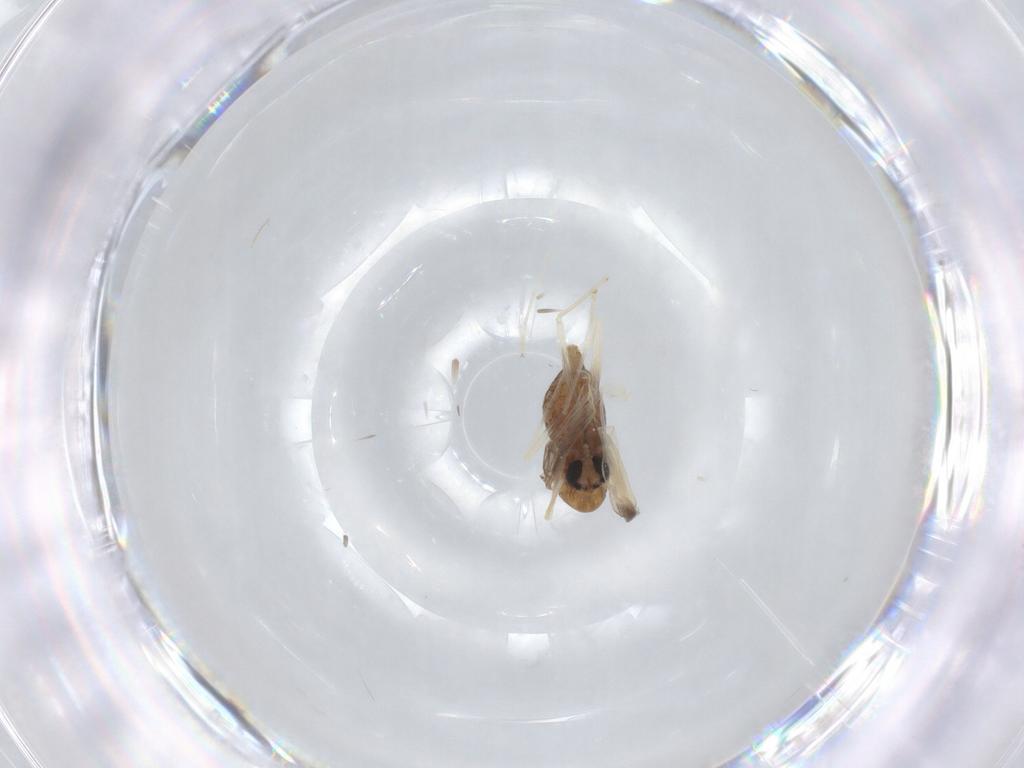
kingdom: Animalia
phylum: Arthropoda
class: Insecta
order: Diptera
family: Chironomidae
